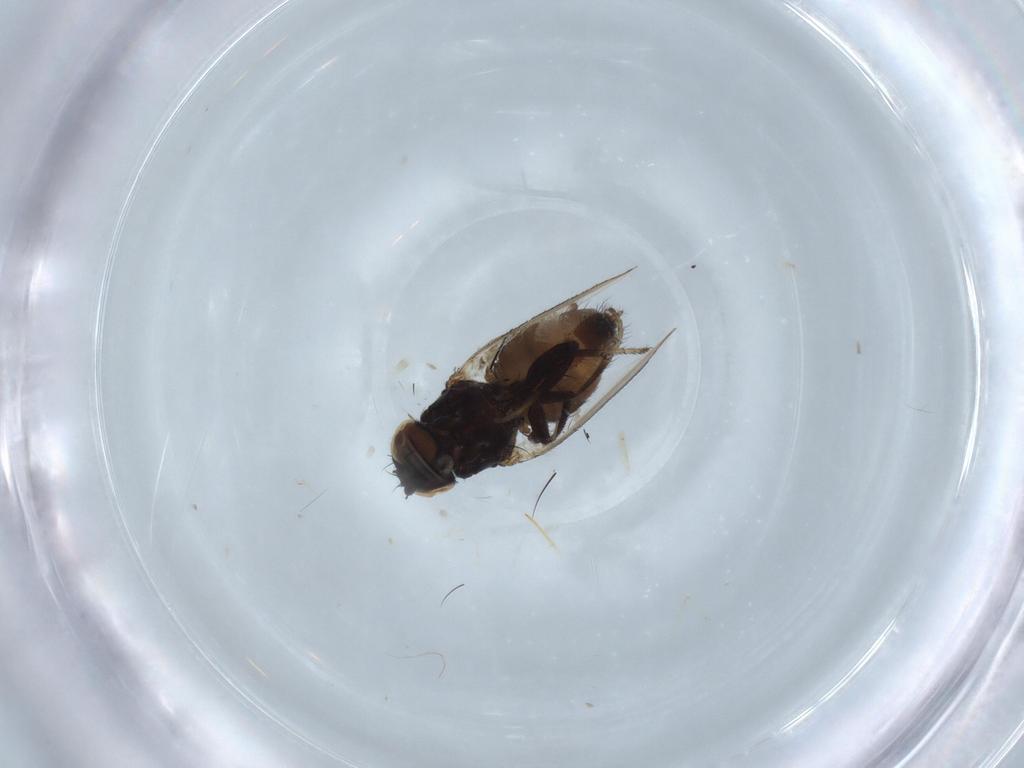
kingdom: Animalia
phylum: Arthropoda
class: Insecta
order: Diptera
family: Milichiidae
